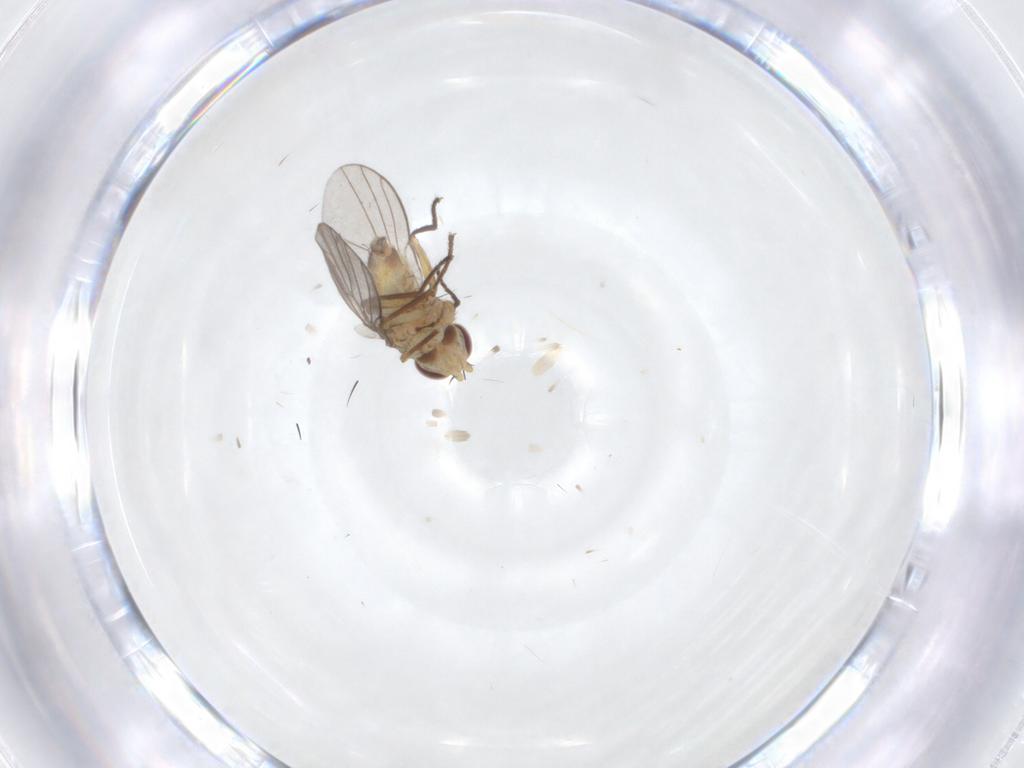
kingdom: Animalia
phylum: Arthropoda
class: Insecta
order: Diptera
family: Agromyzidae
